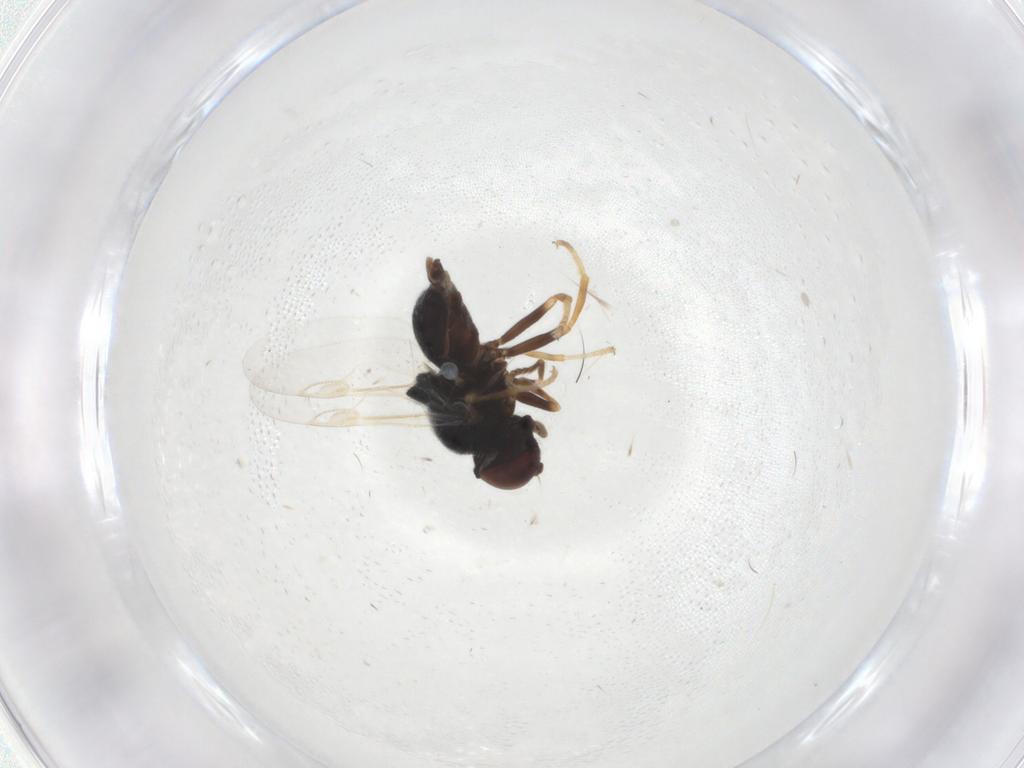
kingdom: Animalia
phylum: Arthropoda
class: Insecta
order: Diptera
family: Stratiomyidae
